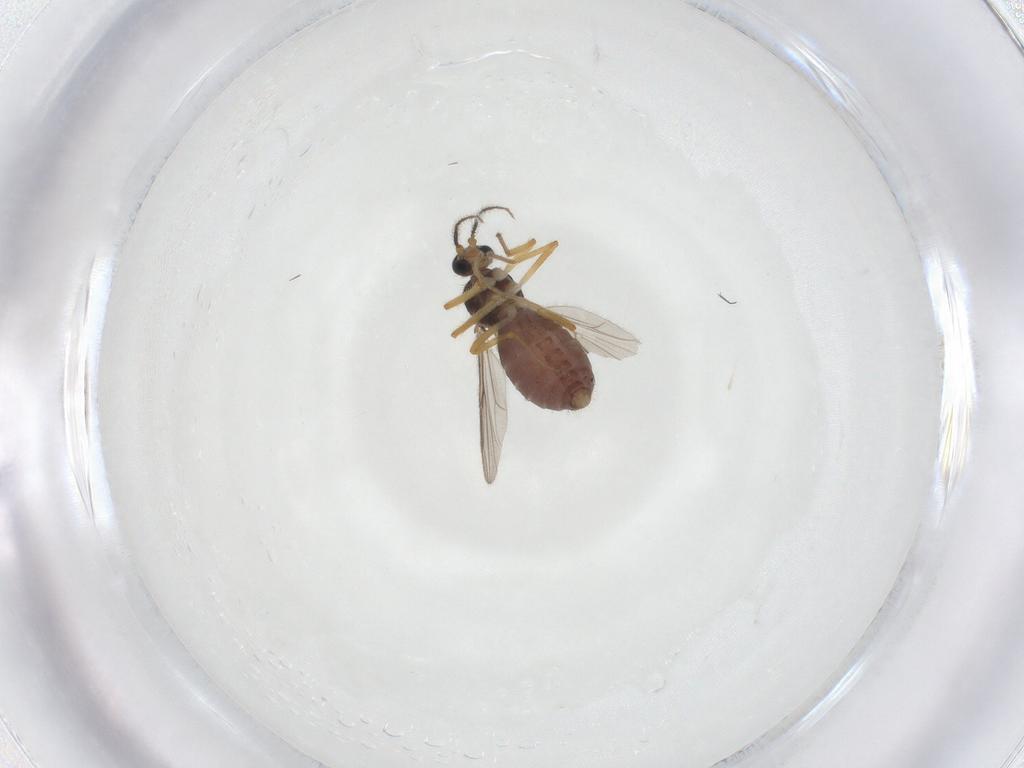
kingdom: Animalia
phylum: Arthropoda
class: Insecta
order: Diptera
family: Ceratopogonidae
